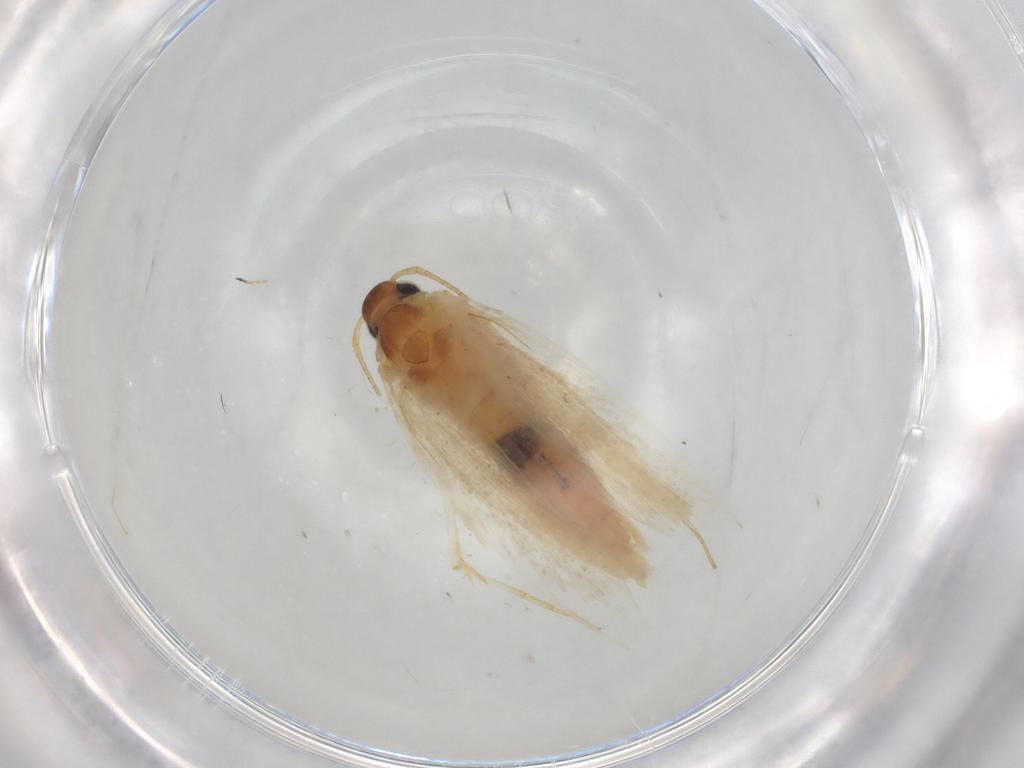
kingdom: Animalia
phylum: Arthropoda
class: Insecta
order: Lepidoptera
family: Gelechiidae
